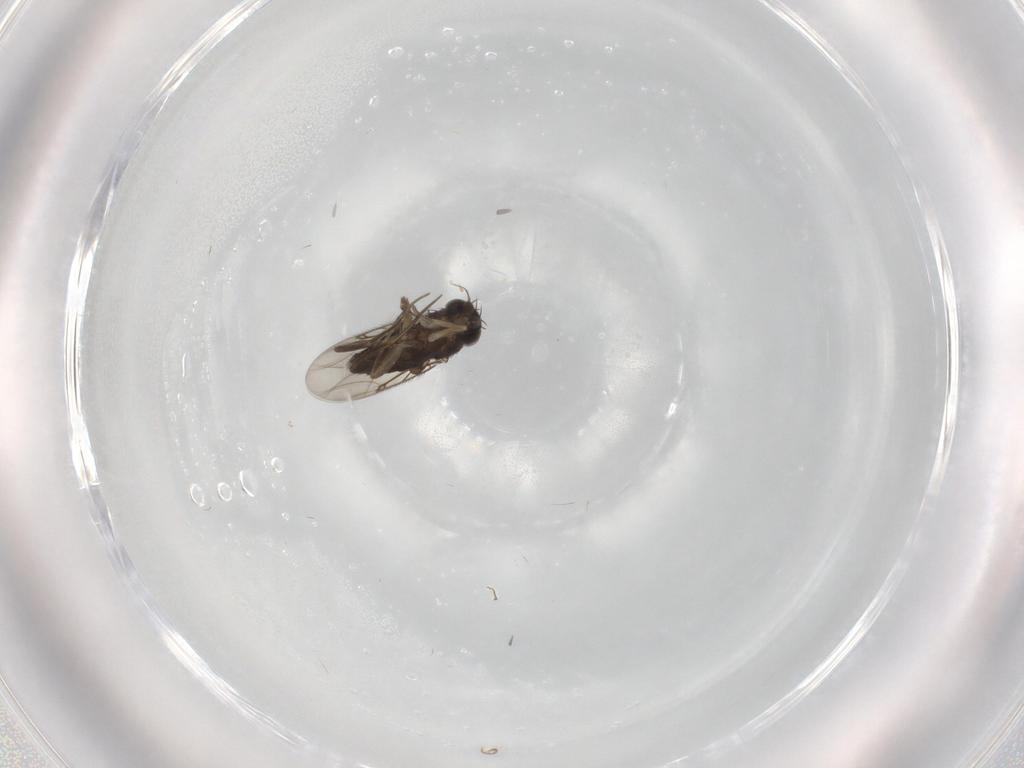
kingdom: Animalia
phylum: Arthropoda
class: Insecta
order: Diptera
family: Phoridae
